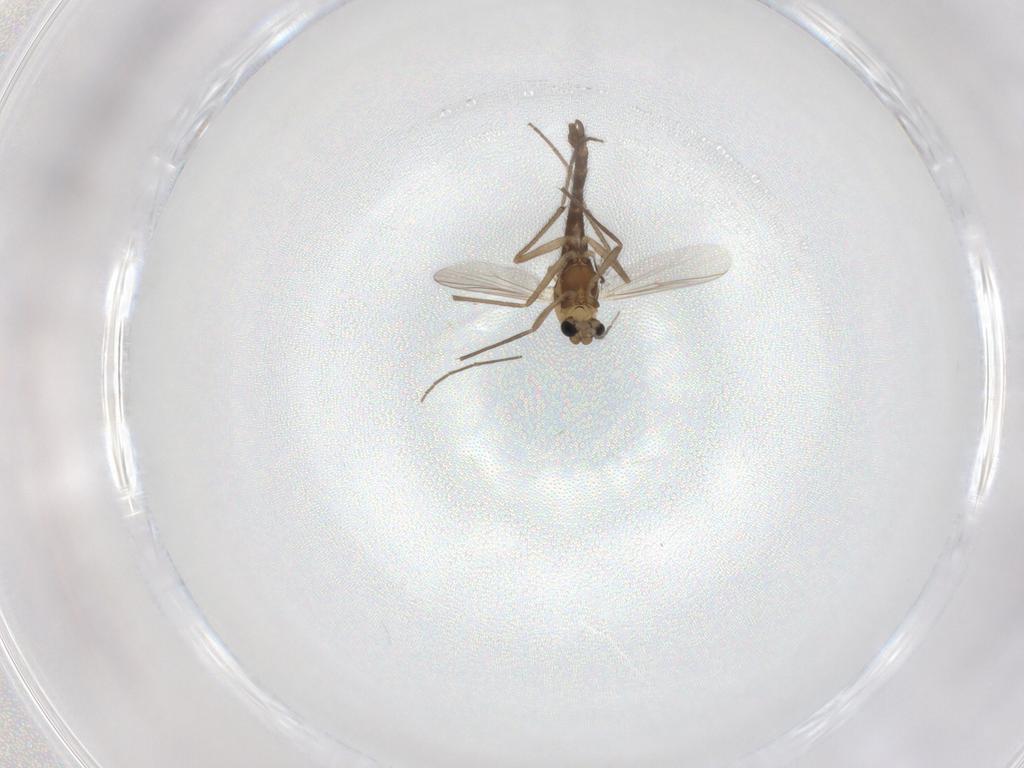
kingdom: Animalia
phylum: Arthropoda
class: Insecta
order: Diptera
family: Chironomidae
